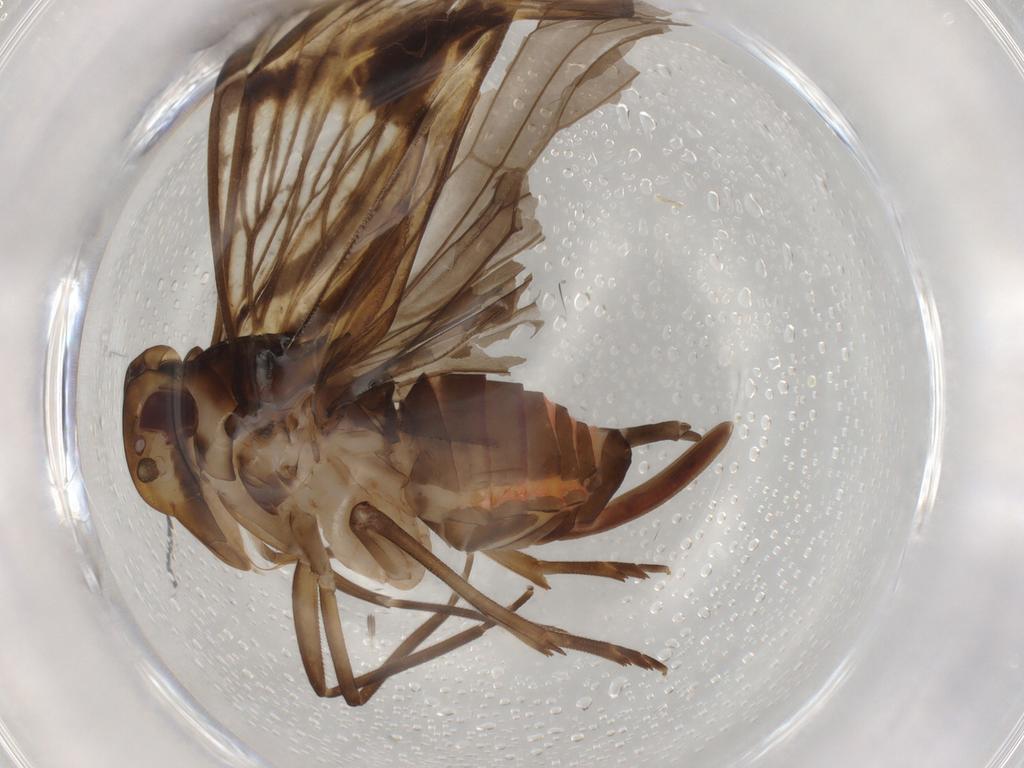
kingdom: Animalia
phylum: Arthropoda
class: Insecta
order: Hemiptera
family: Cixiidae
